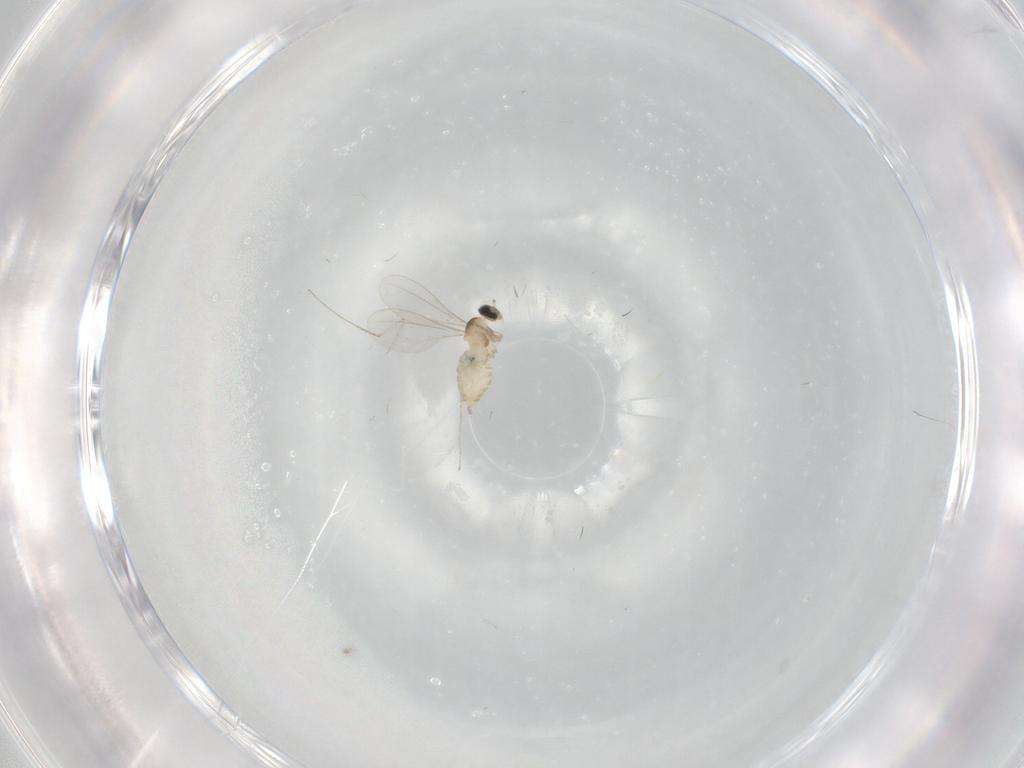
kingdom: Animalia
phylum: Arthropoda
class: Insecta
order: Diptera
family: Cecidomyiidae
